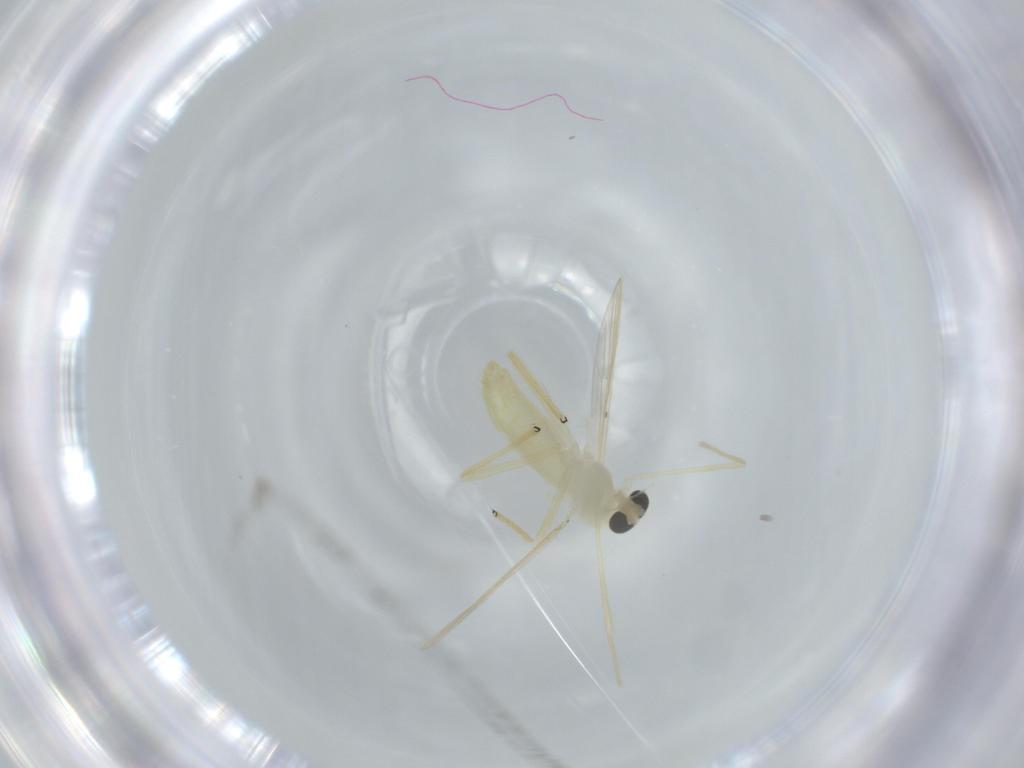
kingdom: Animalia
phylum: Arthropoda
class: Insecta
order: Diptera
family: Chironomidae
